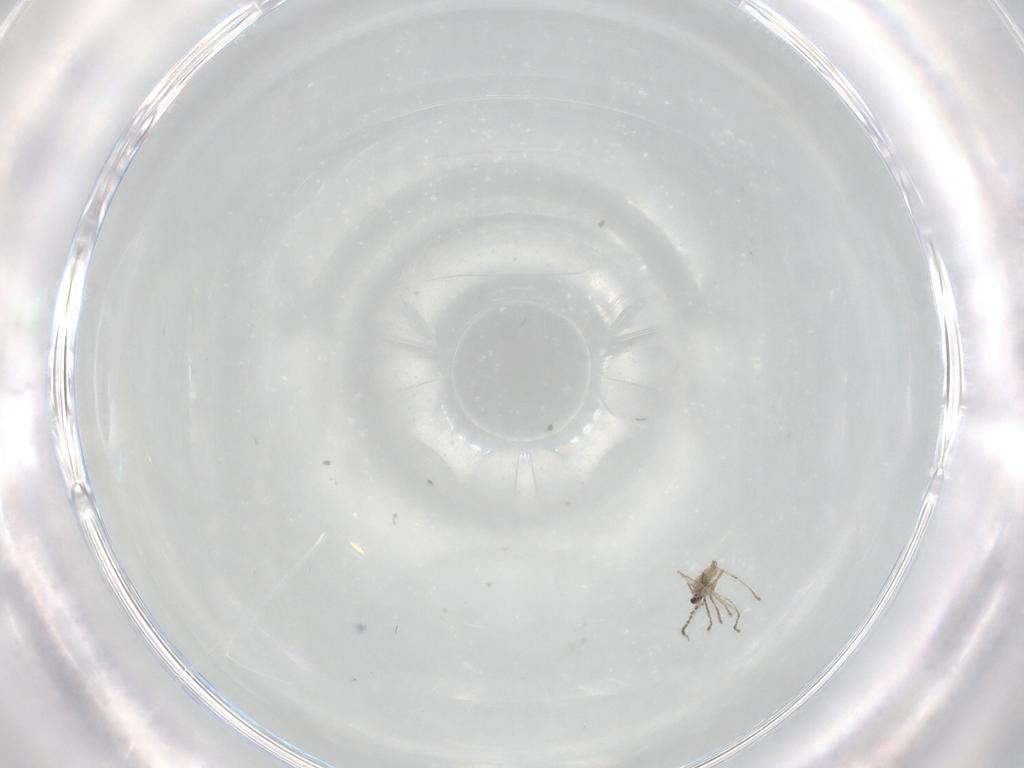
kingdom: Animalia
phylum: Arthropoda
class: Insecta
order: Diptera
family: Cecidomyiidae
